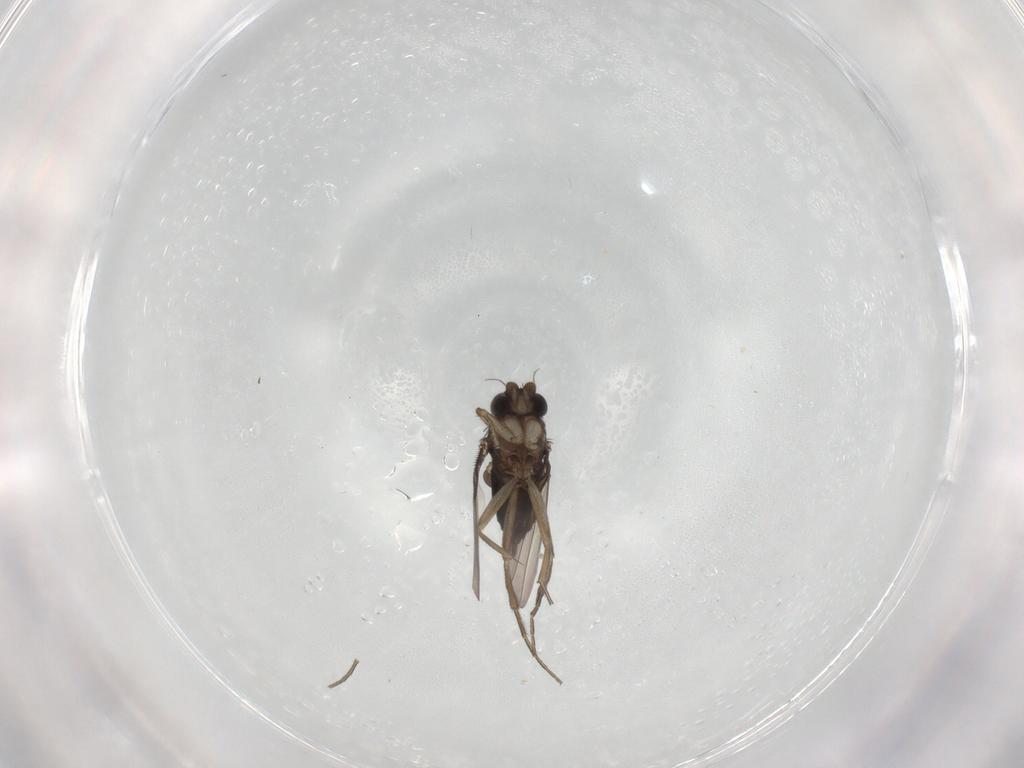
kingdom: Animalia
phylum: Arthropoda
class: Insecta
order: Diptera
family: Phoridae
